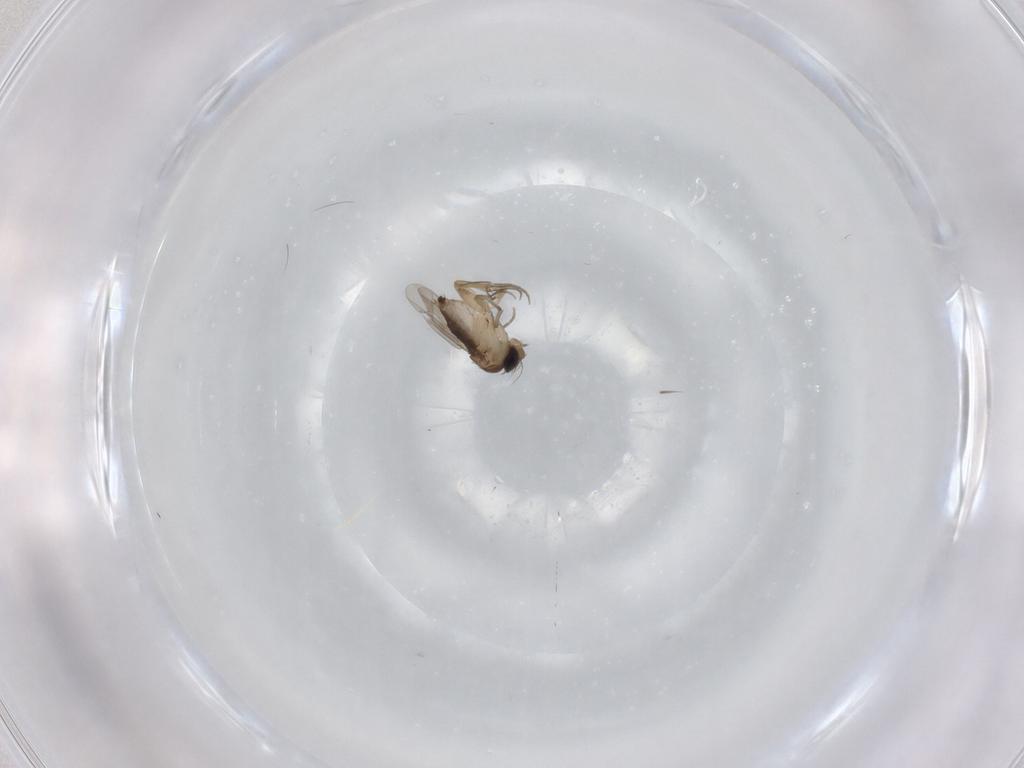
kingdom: Animalia
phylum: Arthropoda
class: Insecta
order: Diptera
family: Phoridae
